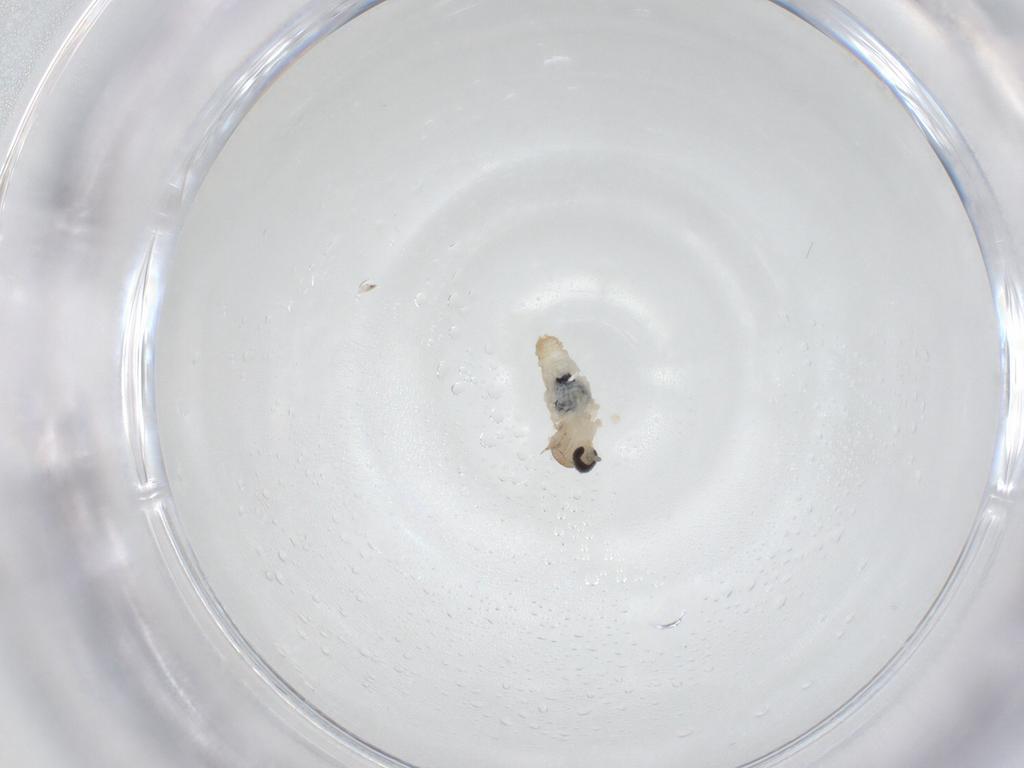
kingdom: Animalia
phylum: Arthropoda
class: Insecta
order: Diptera
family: Cecidomyiidae
